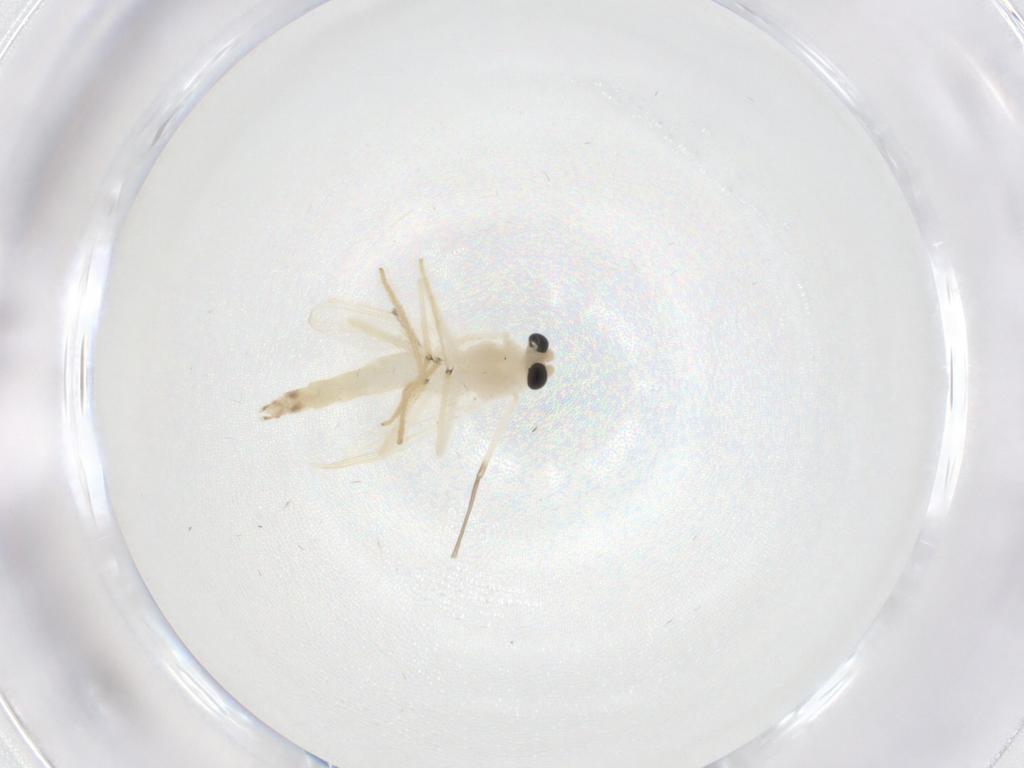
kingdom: Animalia
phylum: Arthropoda
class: Insecta
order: Diptera
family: Chironomidae
